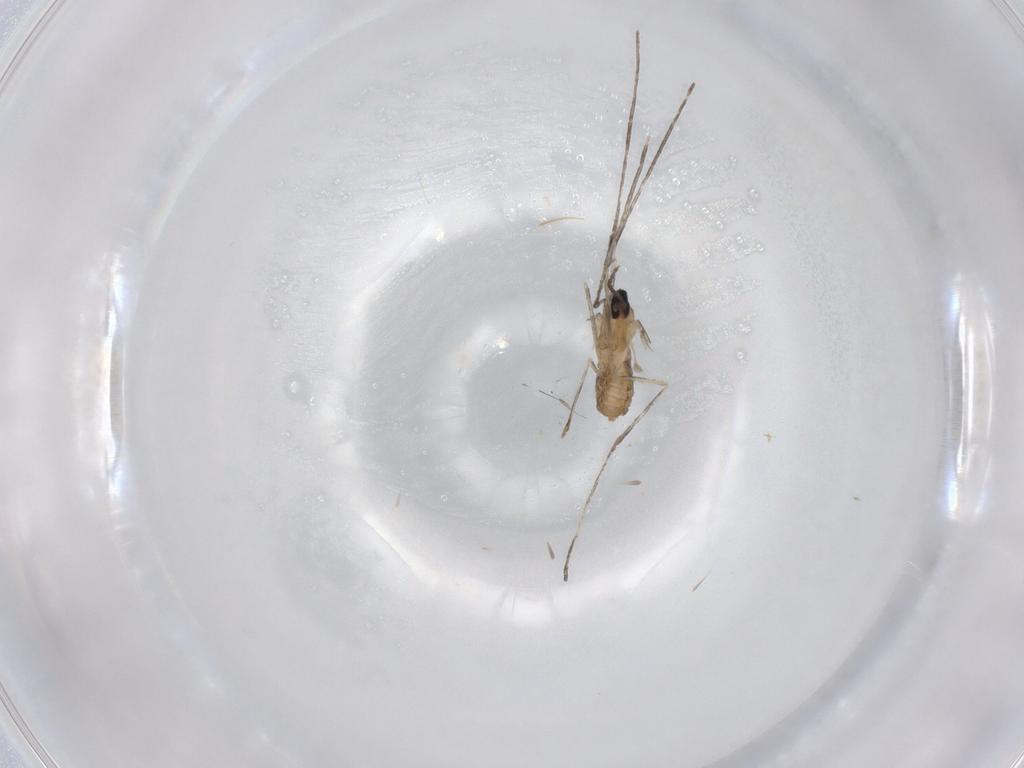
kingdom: Animalia
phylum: Arthropoda
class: Insecta
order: Diptera
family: Cecidomyiidae
